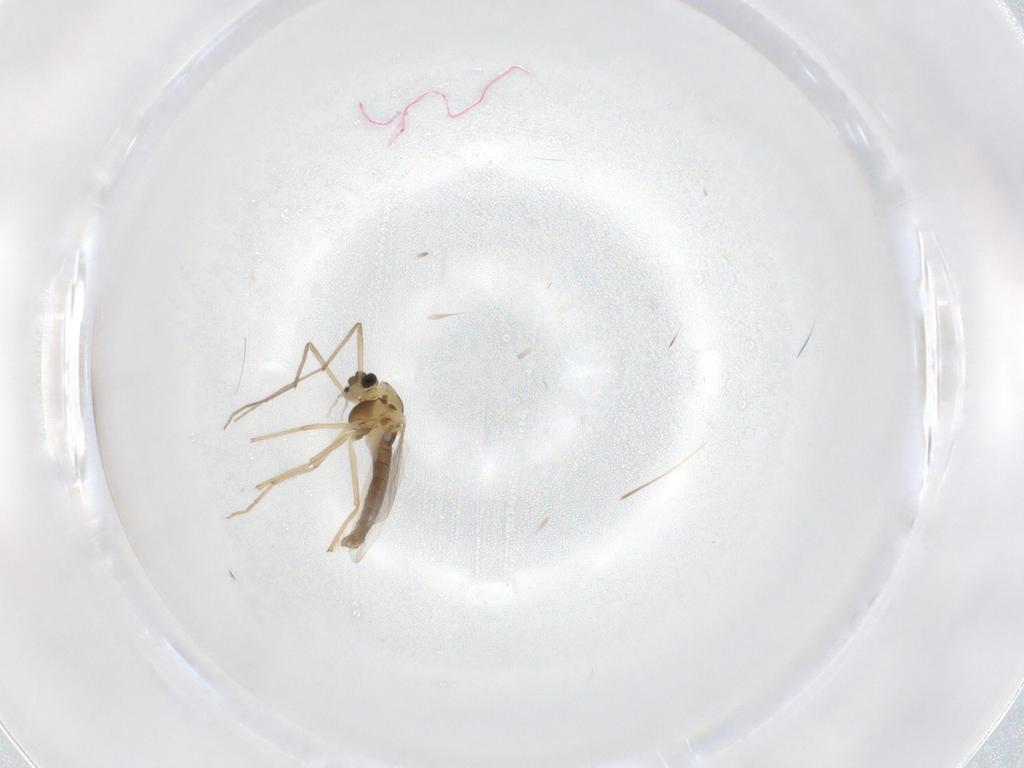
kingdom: Animalia
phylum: Arthropoda
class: Insecta
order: Diptera
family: Chironomidae
